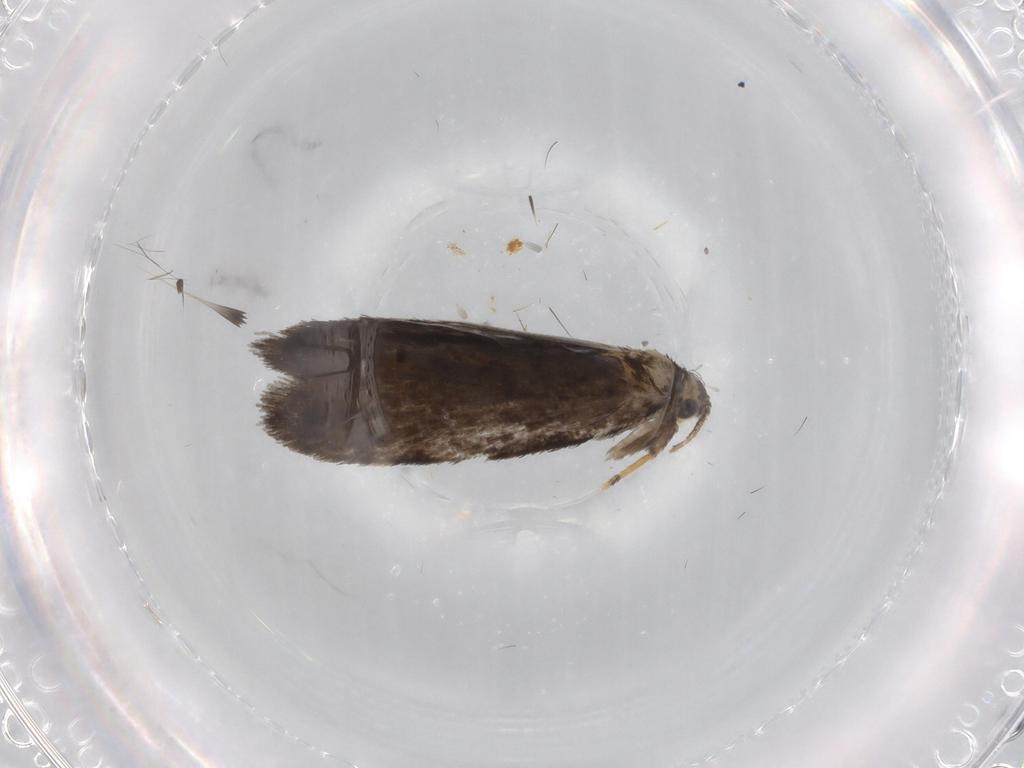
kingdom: Animalia
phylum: Arthropoda
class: Insecta
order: Lepidoptera
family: Psychidae
